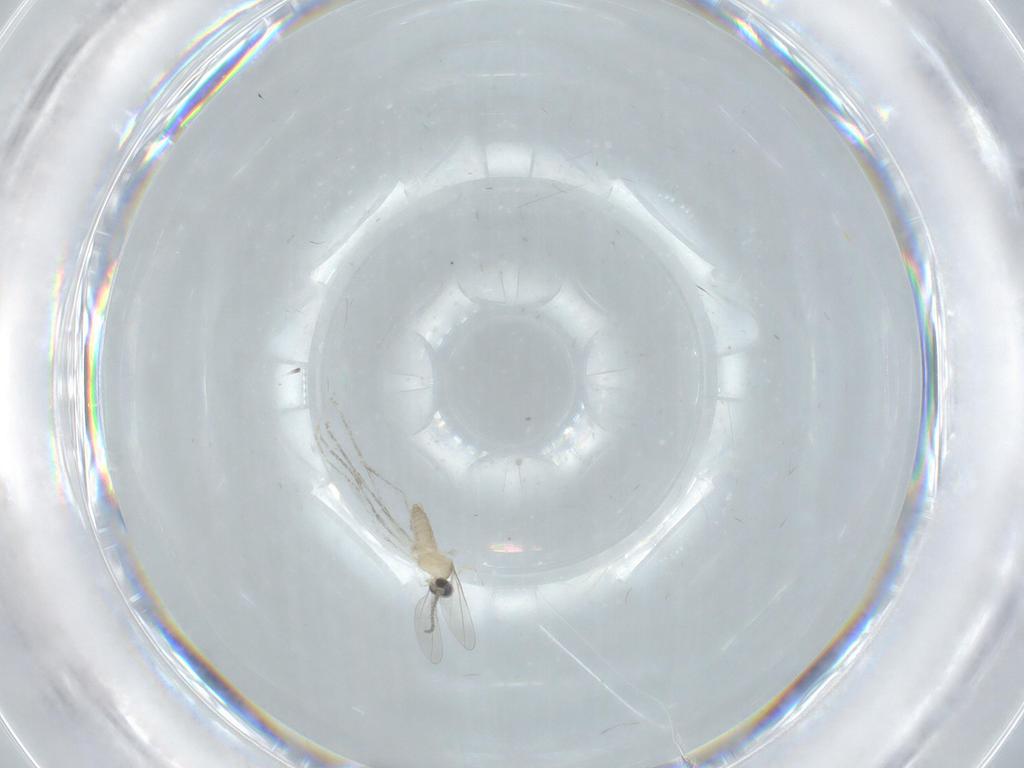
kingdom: Animalia
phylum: Arthropoda
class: Insecta
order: Diptera
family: Cecidomyiidae
